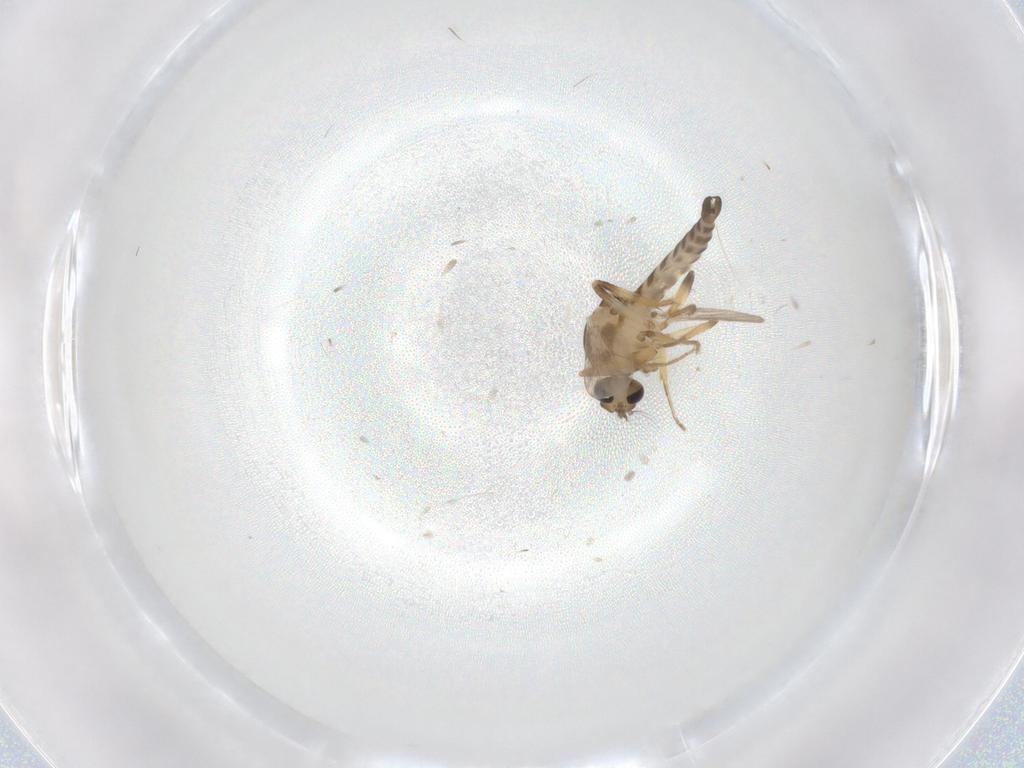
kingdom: Animalia
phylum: Arthropoda
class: Insecta
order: Diptera
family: Ceratopogonidae
